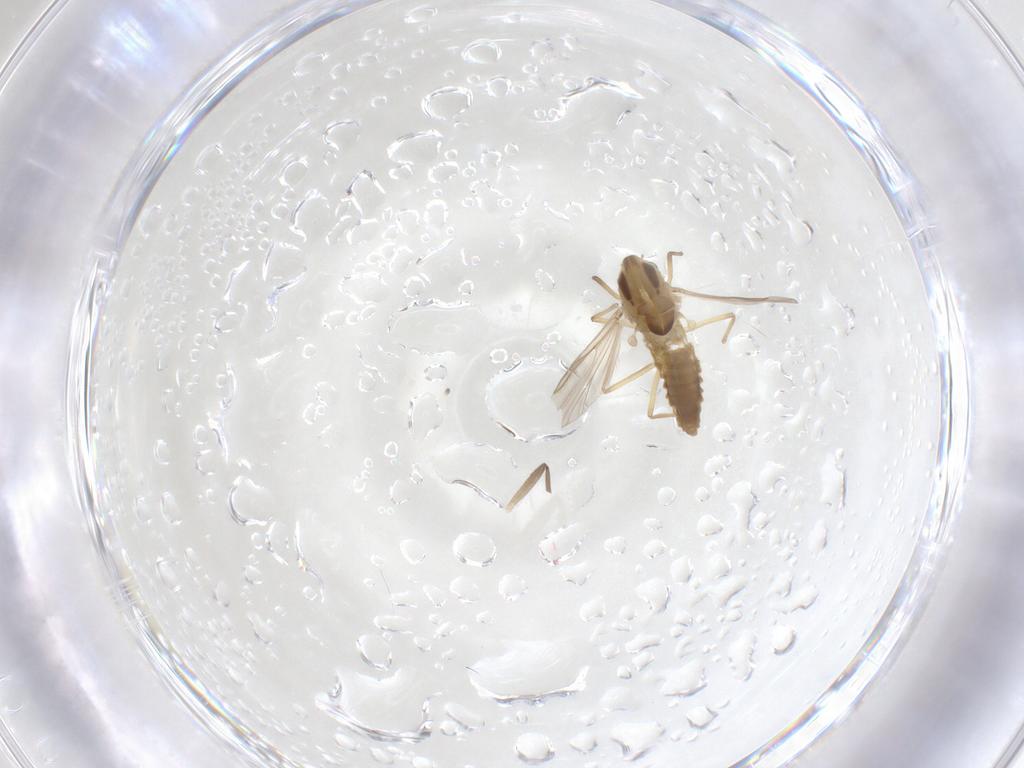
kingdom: Animalia
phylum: Arthropoda
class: Insecta
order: Diptera
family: Chironomidae
